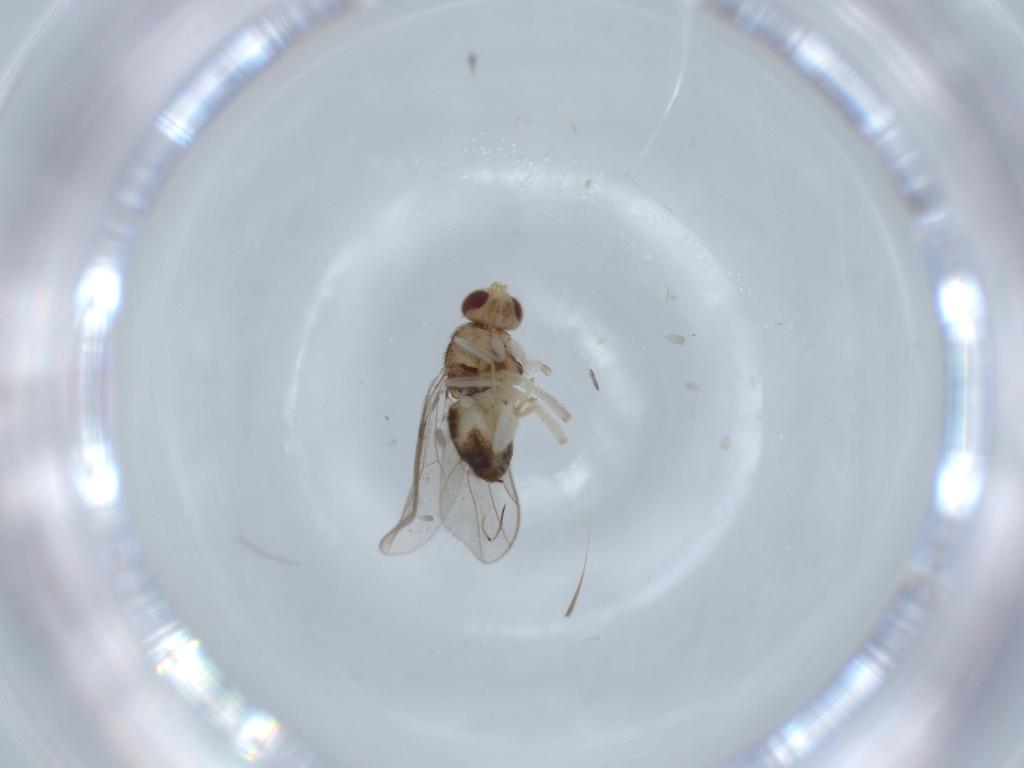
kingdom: Animalia
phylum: Arthropoda
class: Insecta
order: Diptera
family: Chloropidae
